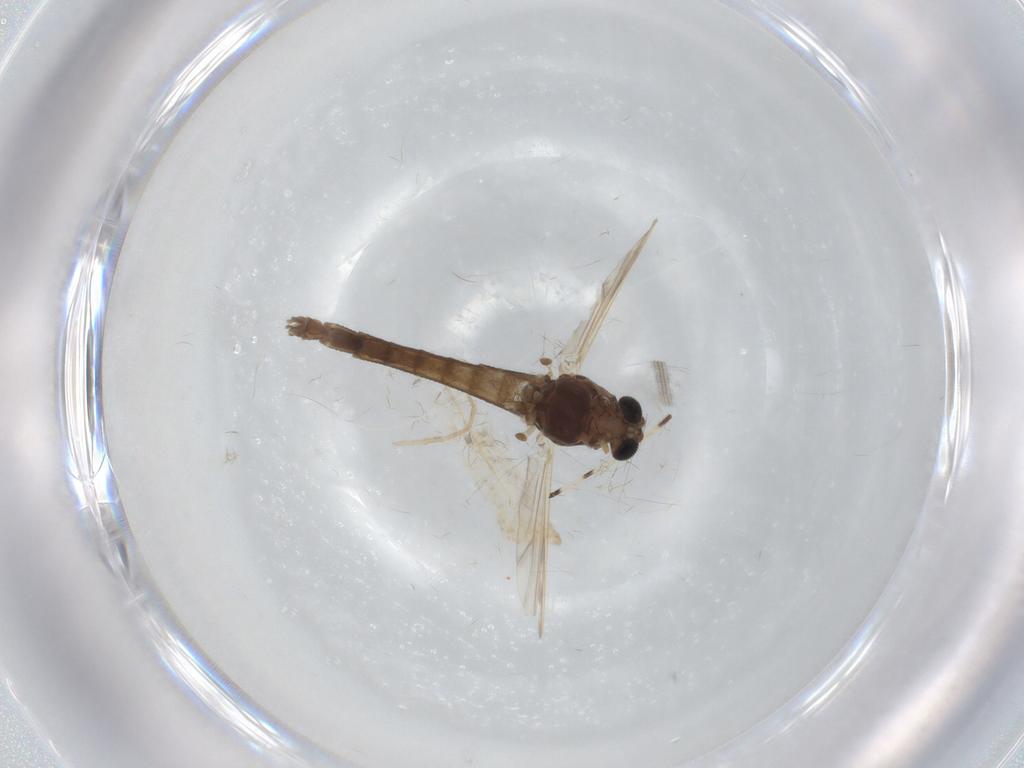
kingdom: Animalia
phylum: Arthropoda
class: Insecta
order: Diptera
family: Chironomidae
